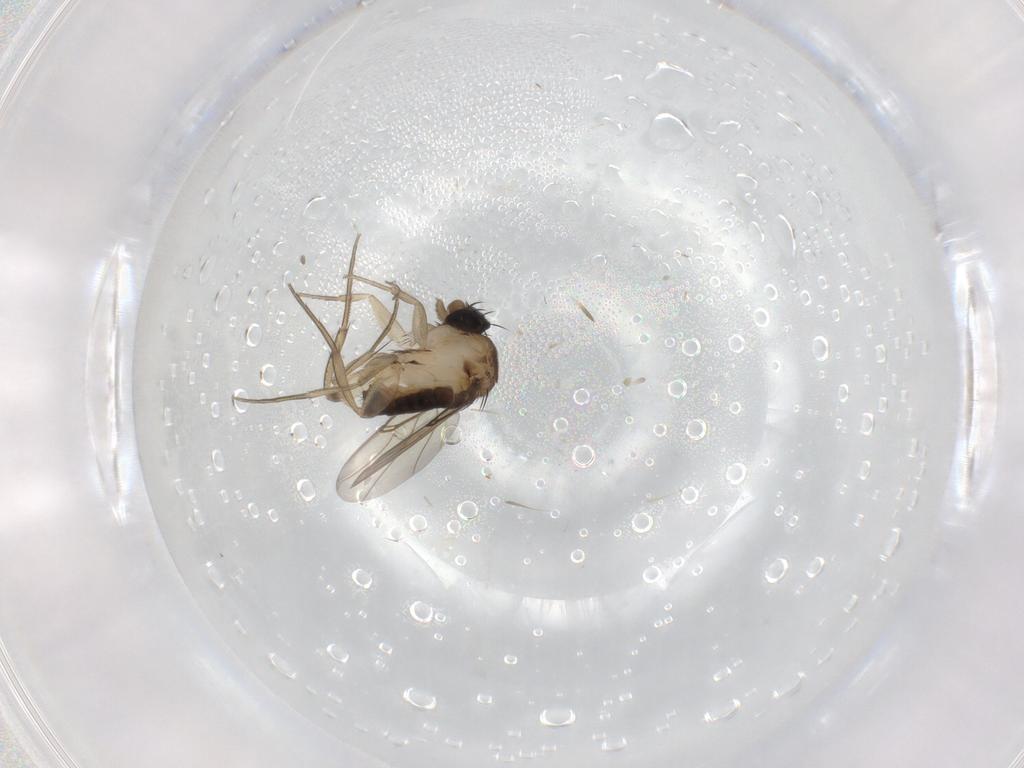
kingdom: Animalia
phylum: Arthropoda
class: Insecta
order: Diptera
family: Phoridae
